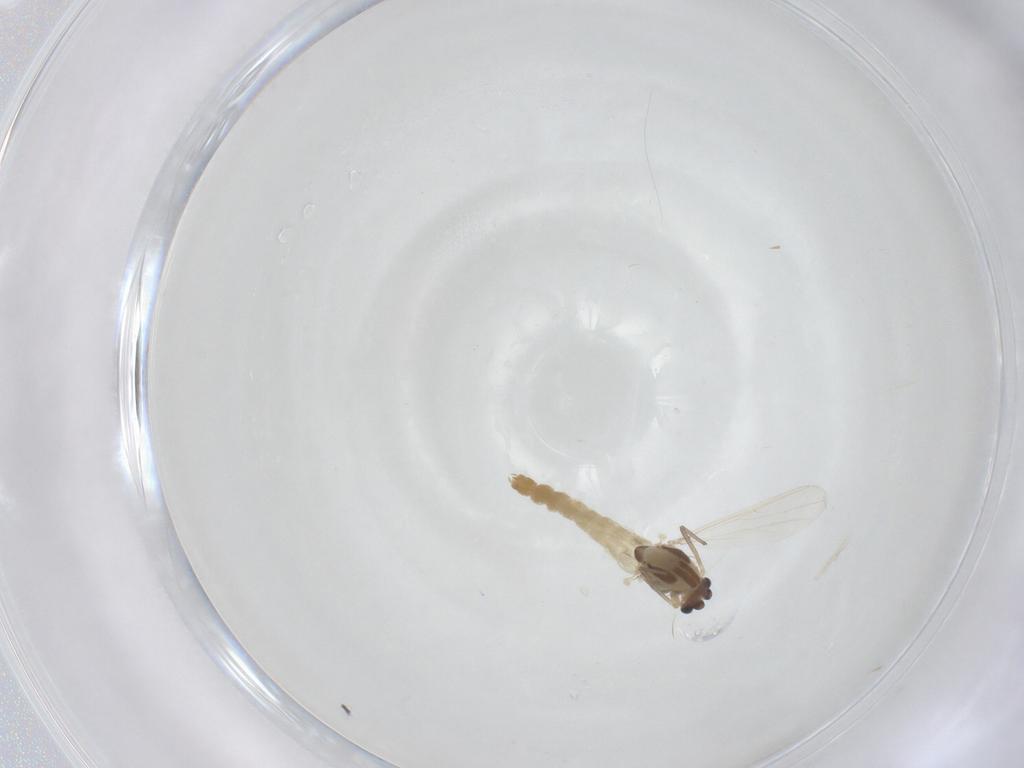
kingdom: Animalia
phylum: Arthropoda
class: Insecta
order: Diptera
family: Chironomidae
